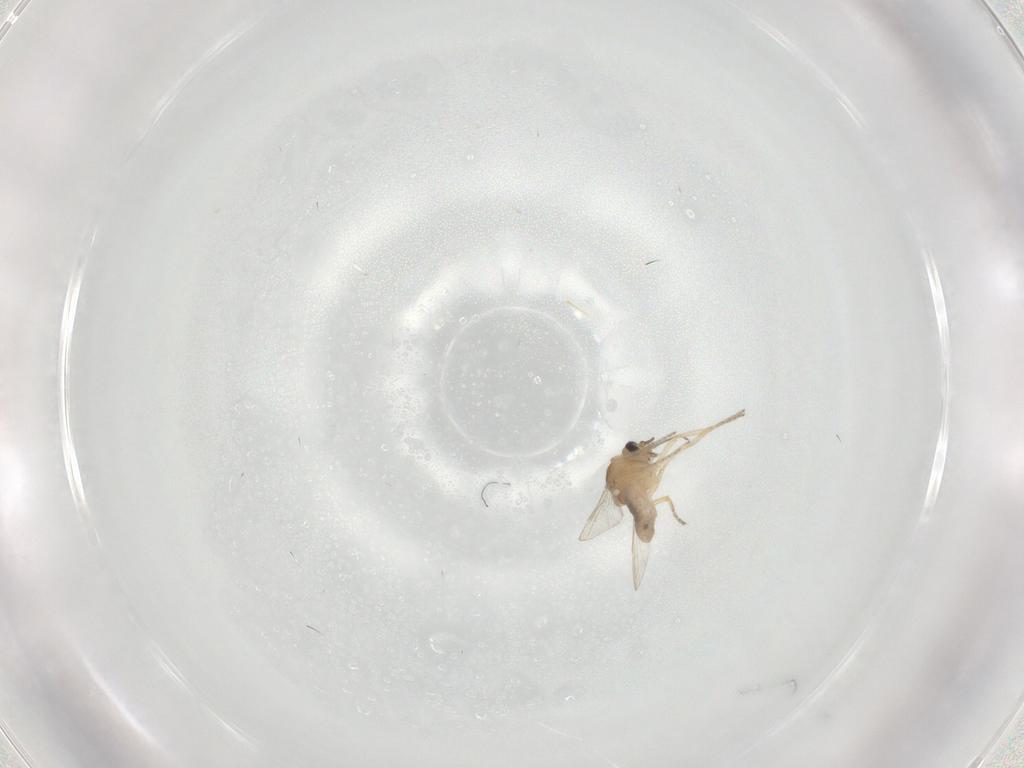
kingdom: Animalia
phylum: Arthropoda
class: Insecta
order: Diptera
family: Ceratopogonidae
